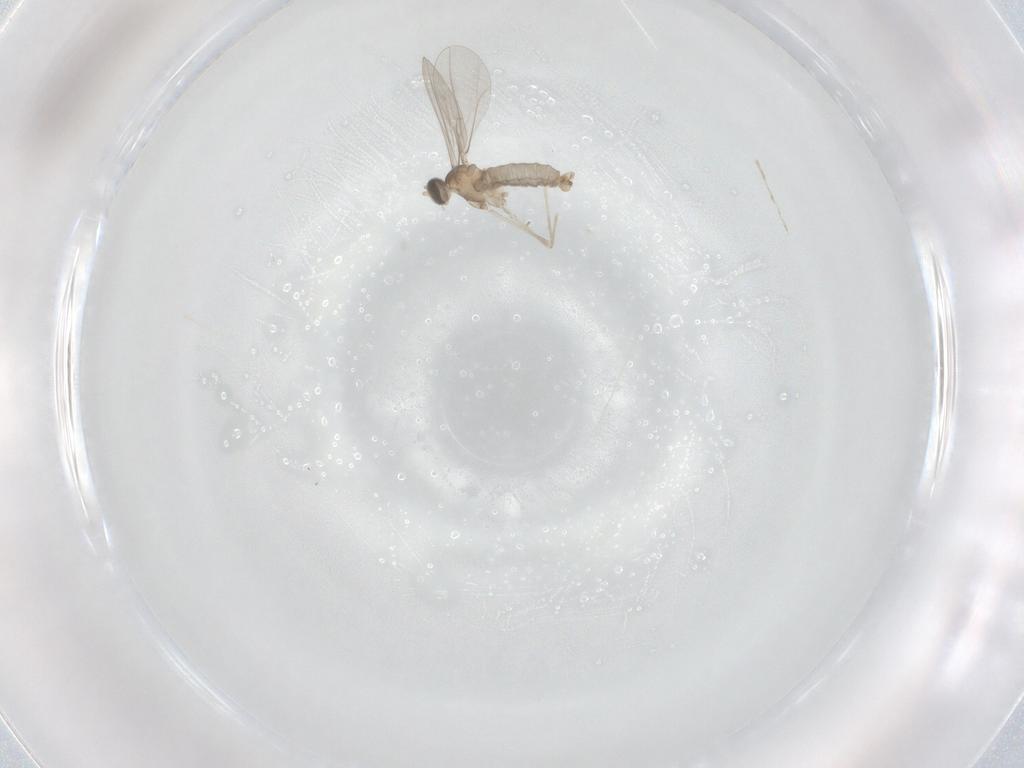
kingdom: Animalia
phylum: Arthropoda
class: Insecta
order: Diptera
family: Cecidomyiidae
